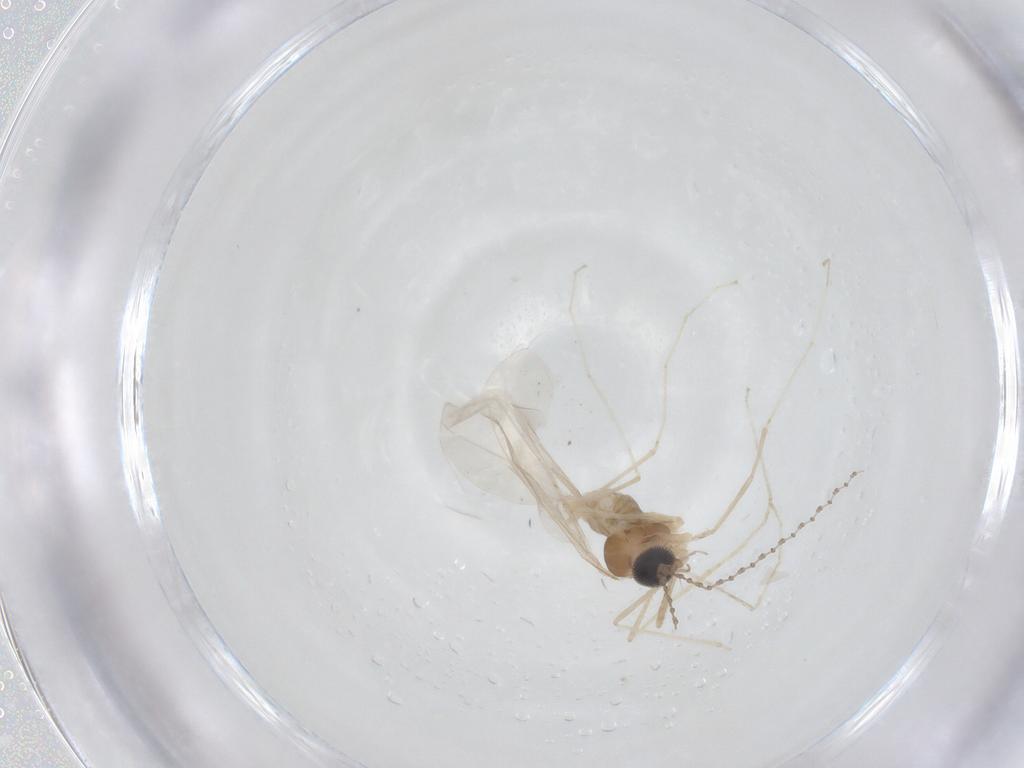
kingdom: Animalia
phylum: Arthropoda
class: Insecta
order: Diptera
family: Cecidomyiidae
